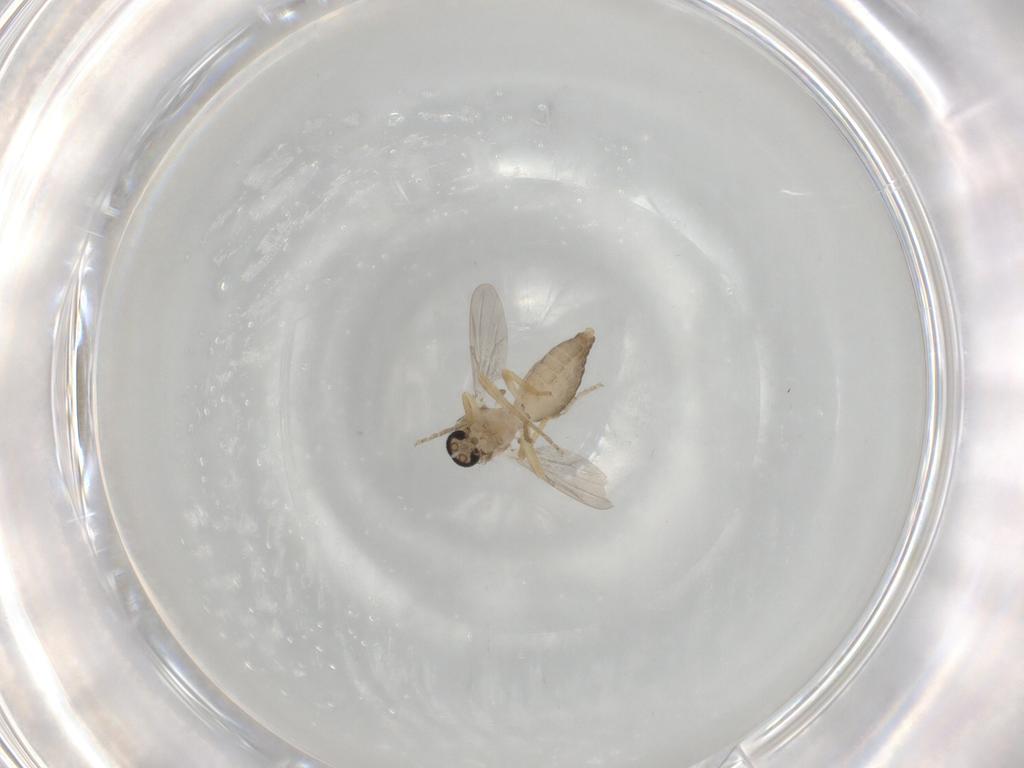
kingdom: Animalia
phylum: Arthropoda
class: Insecta
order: Diptera
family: Ceratopogonidae
